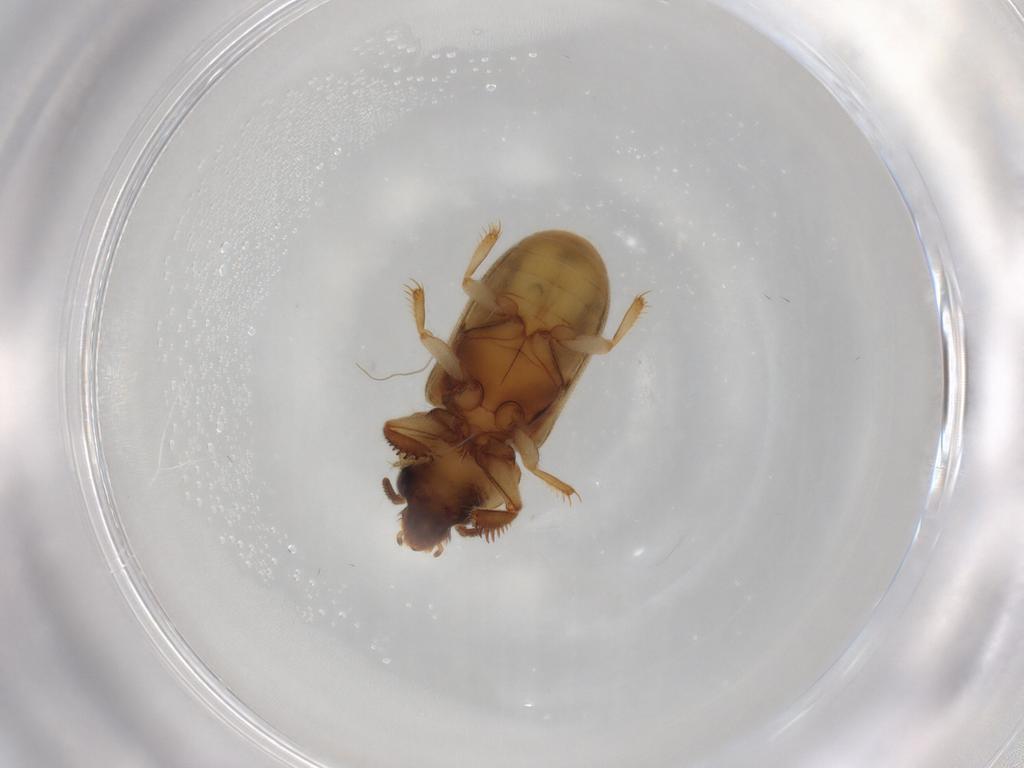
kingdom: Animalia
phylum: Arthropoda
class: Insecta
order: Coleoptera
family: Heteroceridae
